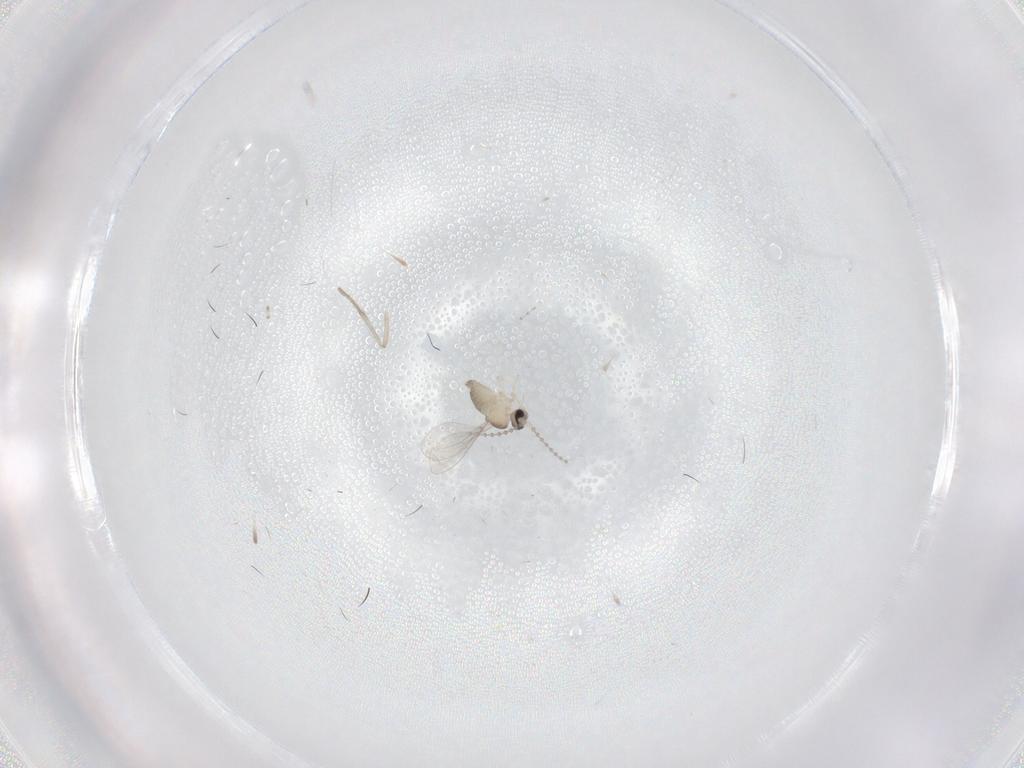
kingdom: Animalia
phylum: Arthropoda
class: Insecta
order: Diptera
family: Cecidomyiidae
